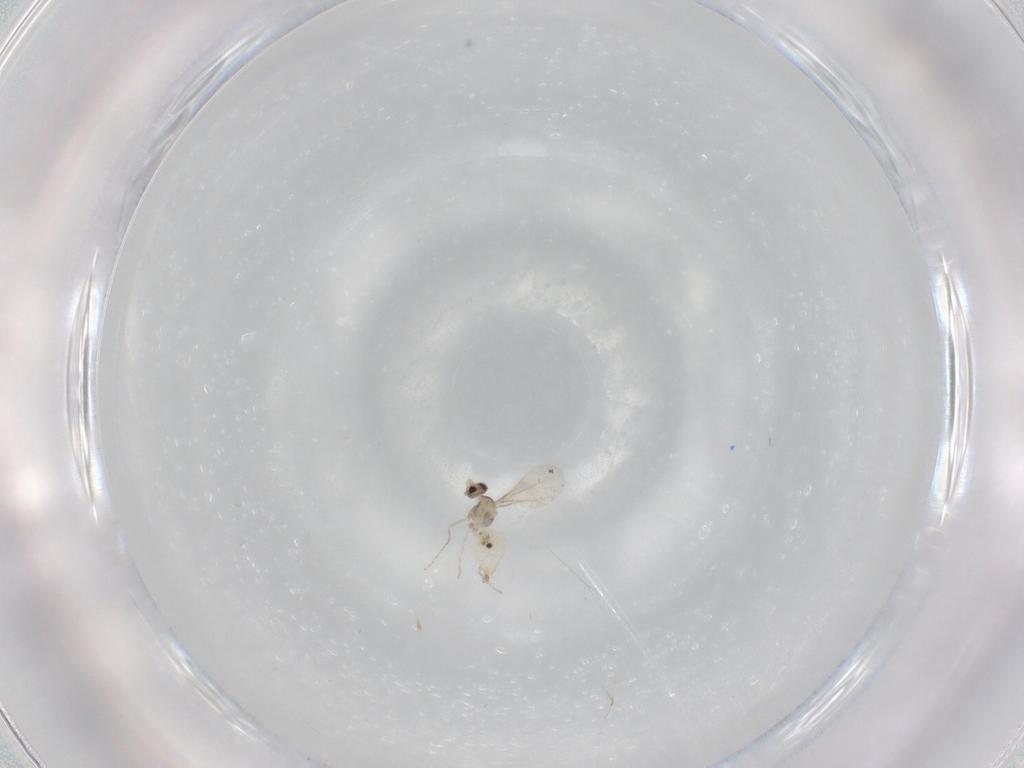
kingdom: Animalia
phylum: Arthropoda
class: Insecta
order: Diptera
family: Cecidomyiidae
